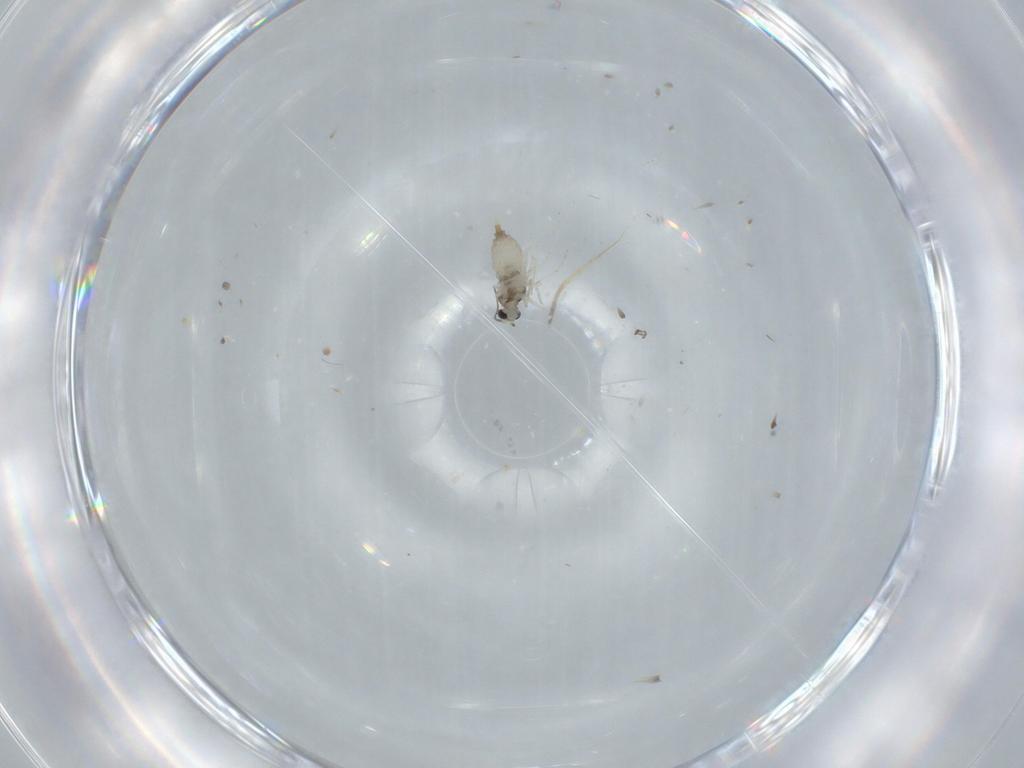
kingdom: Animalia
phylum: Arthropoda
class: Insecta
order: Diptera
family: Cecidomyiidae
